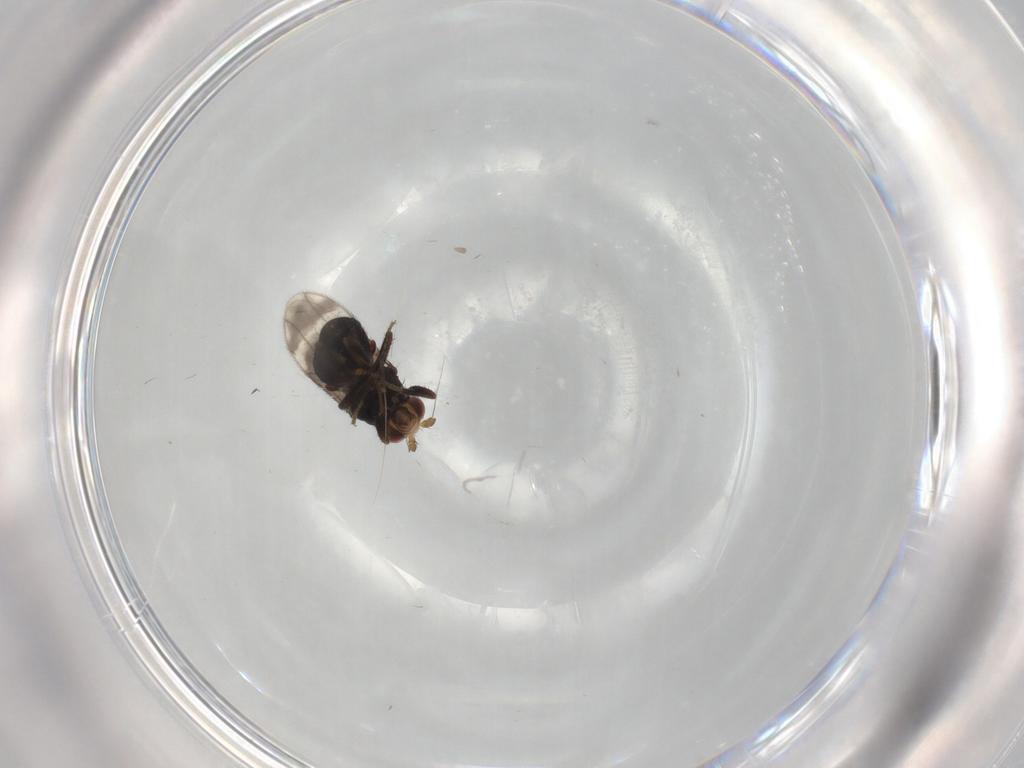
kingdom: Animalia
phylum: Arthropoda
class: Insecta
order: Diptera
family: Sphaeroceridae
